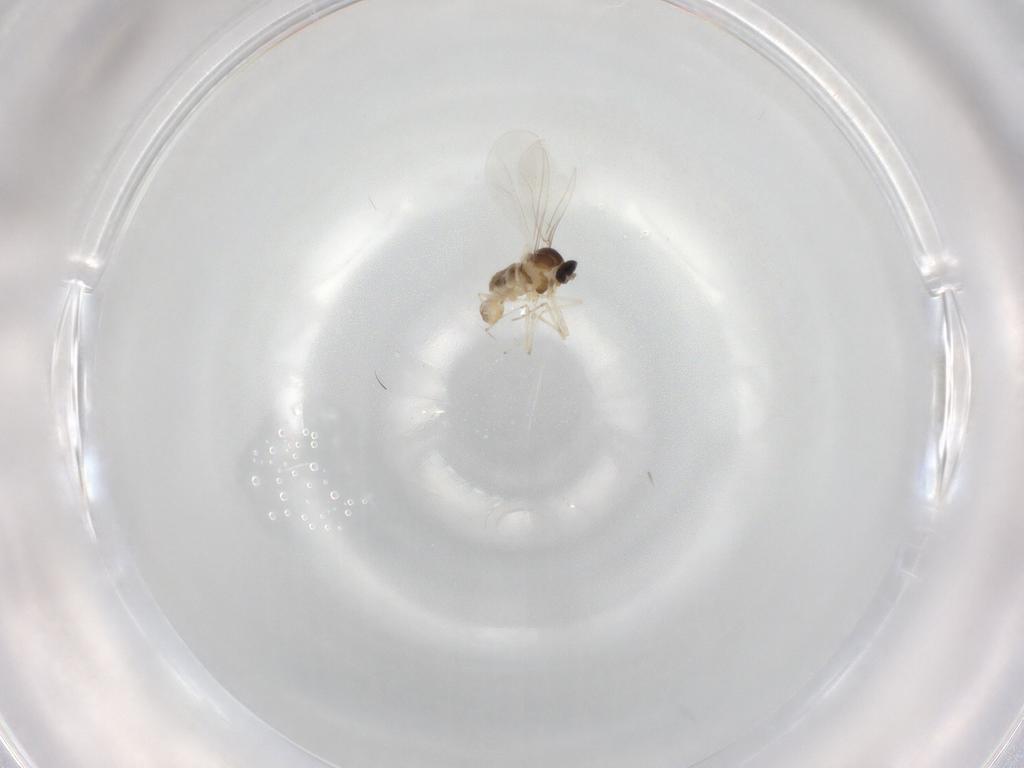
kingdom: Animalia
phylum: Arthropoda
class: Insecta
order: Diptera
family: Cecidomyiidae
